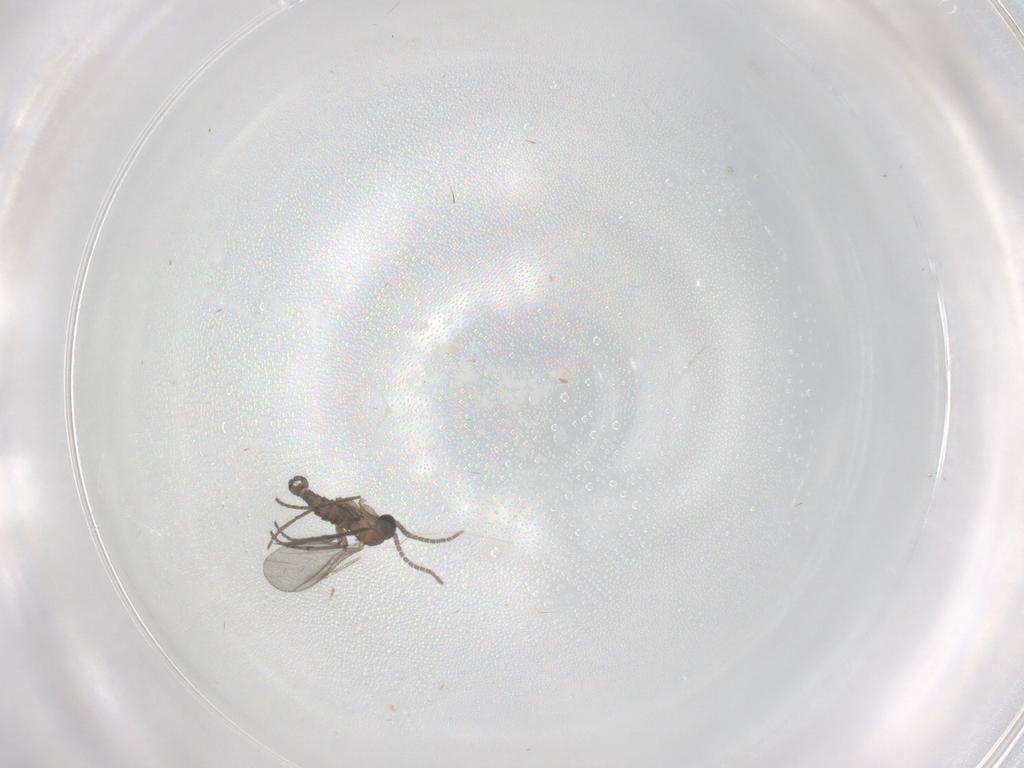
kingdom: Animalia
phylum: Arthropoda
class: Insecta
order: Diptera
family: Sciaridae
